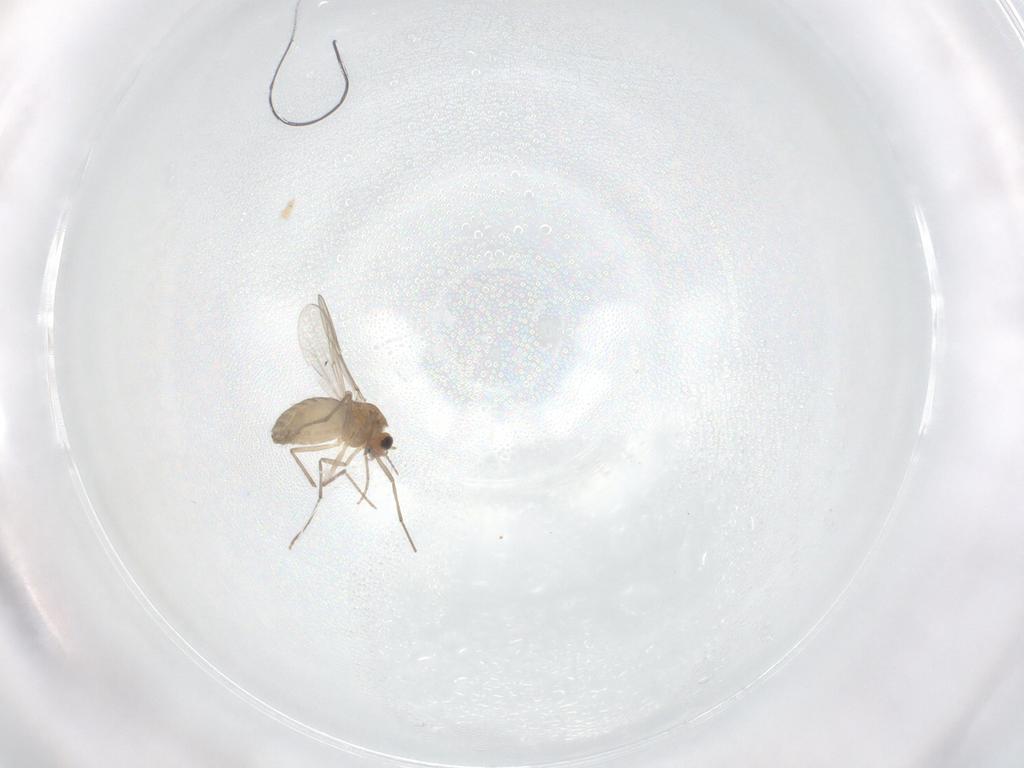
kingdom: Animalia
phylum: Arthropoda
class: Insecta
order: Diptera
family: Dolichopodidae
